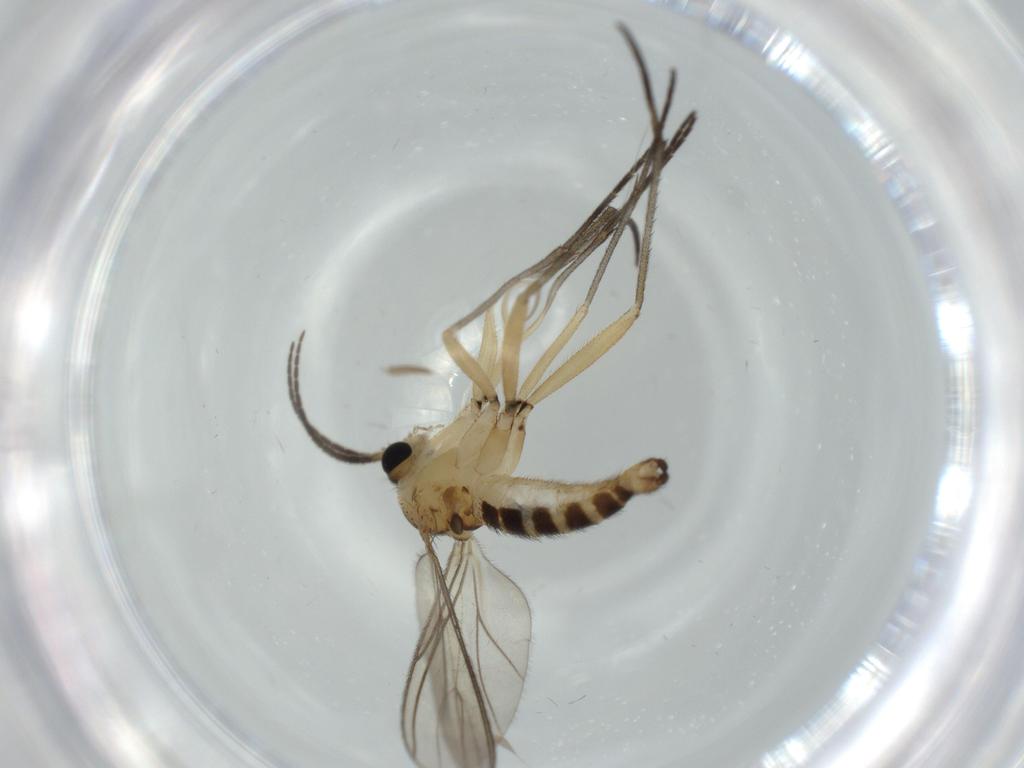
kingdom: Animalia
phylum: Arthropoda
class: Insecta
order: Diptera
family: Sciaridae
